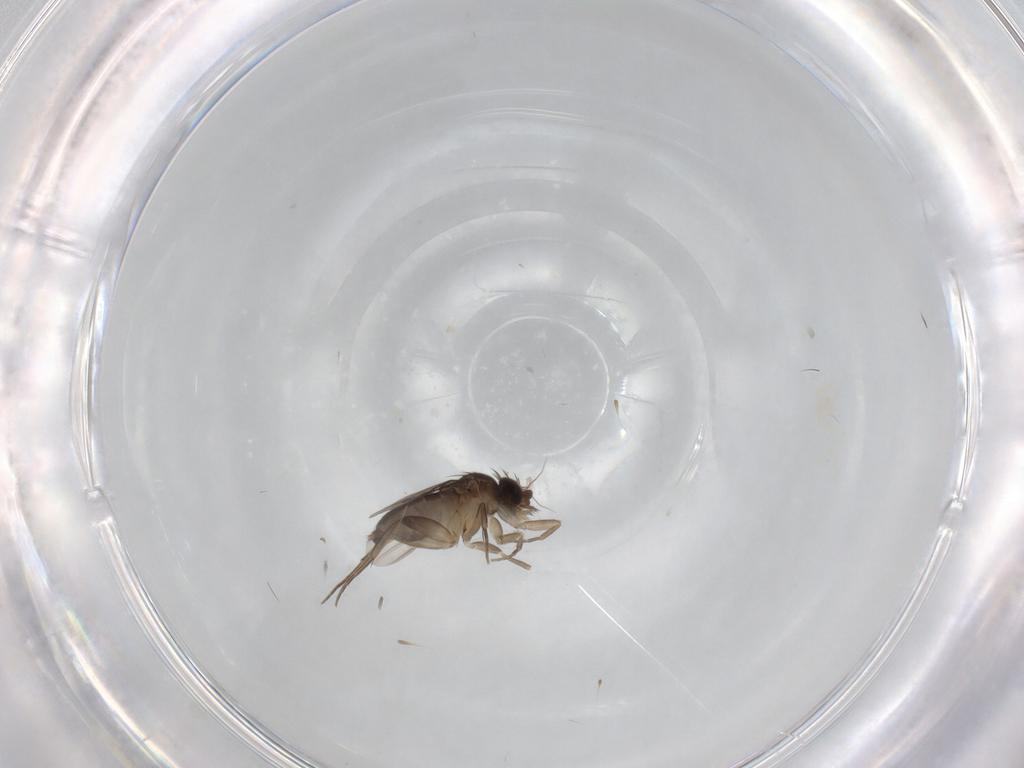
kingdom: Animalia
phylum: Arthropoda
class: Insecta
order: Diptera
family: Phoridae
